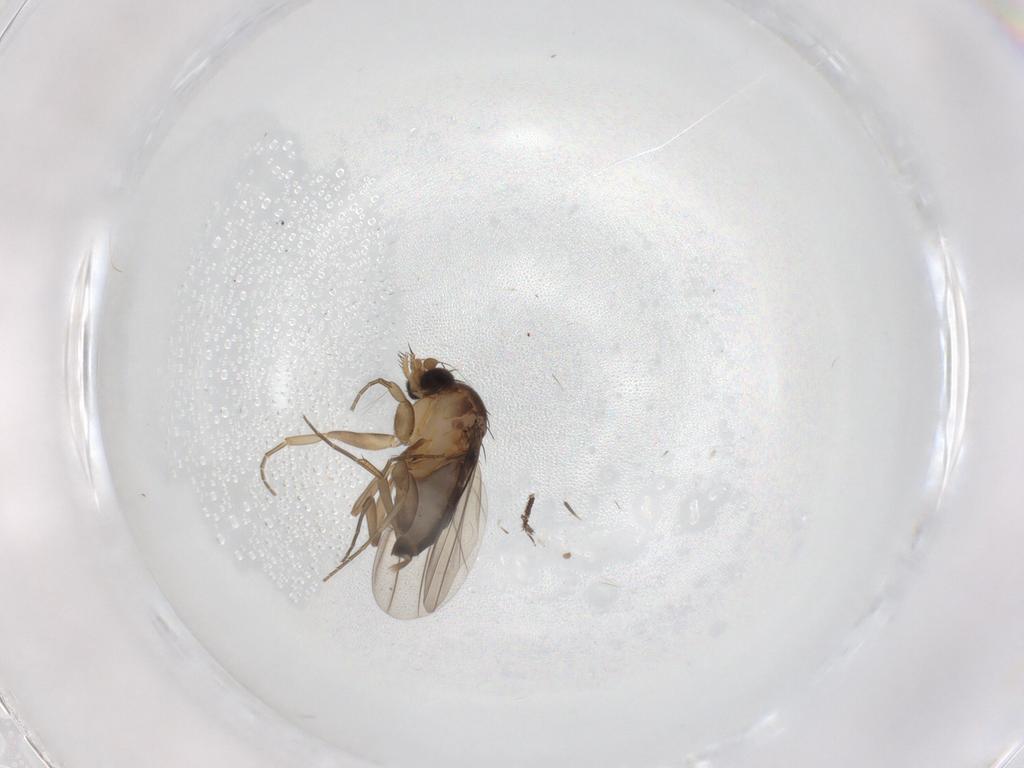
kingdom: Animalia
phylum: Arthropoda
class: Insecta
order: Diptera
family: Phoridae
